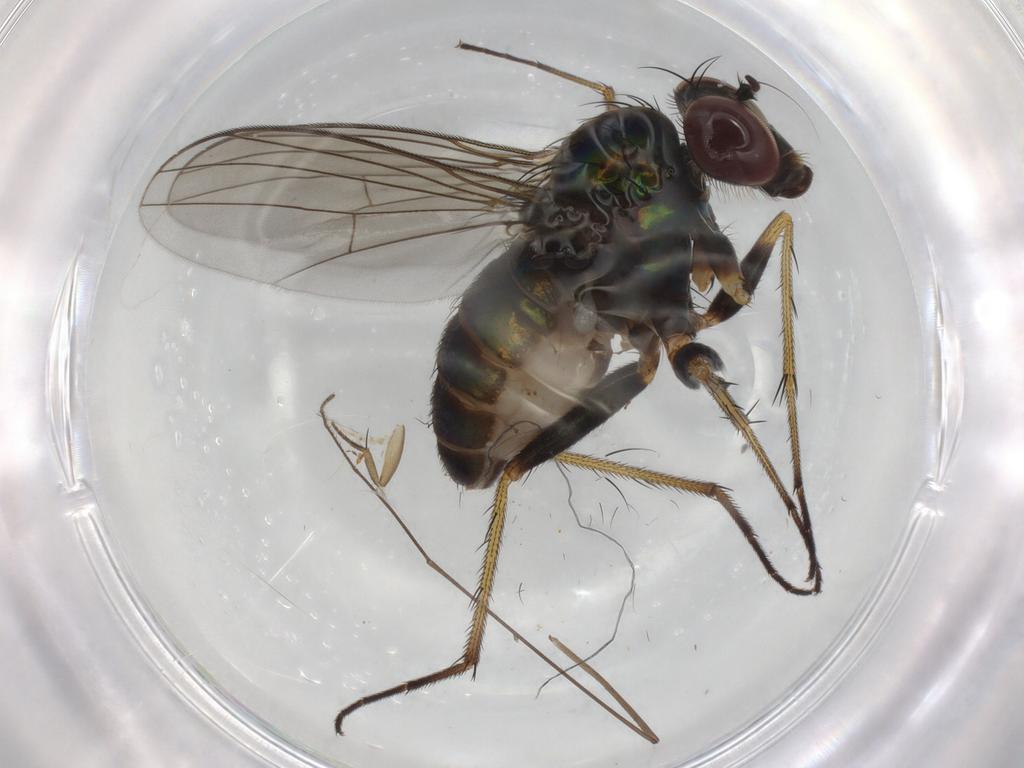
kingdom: Animalia
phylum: Arthropoda
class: Insecta
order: Diptera
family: Dolichopodidae
